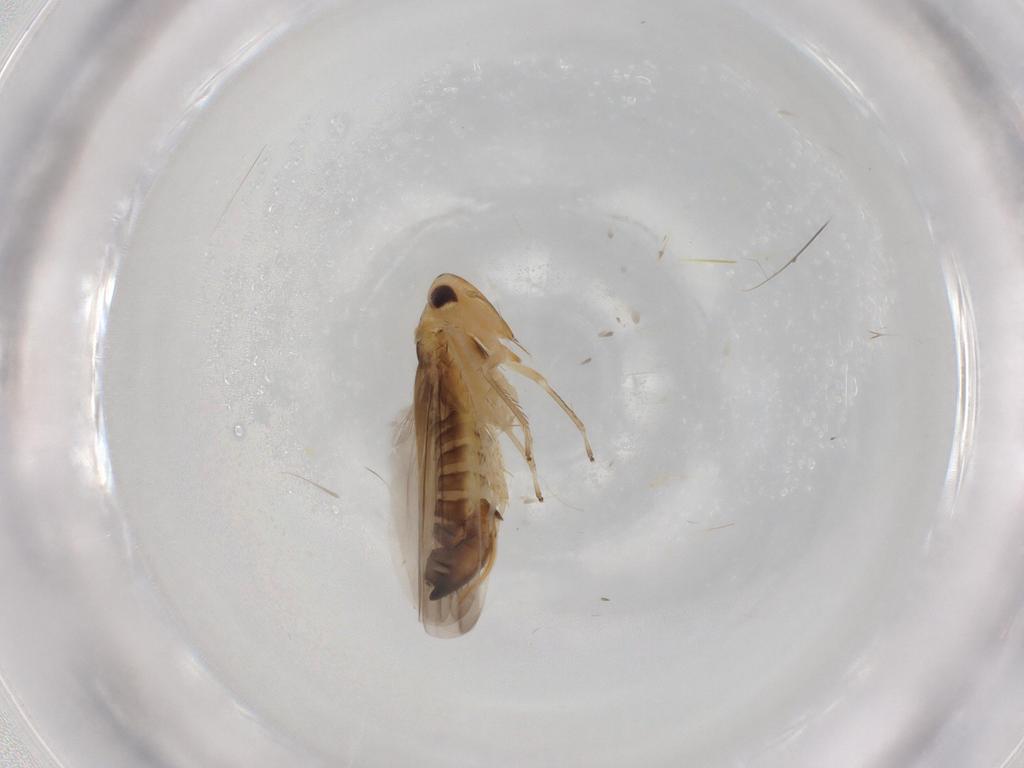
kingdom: Animalia
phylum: Arthropoda
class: Insecta
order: Hemiptera
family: Cicadellidae
